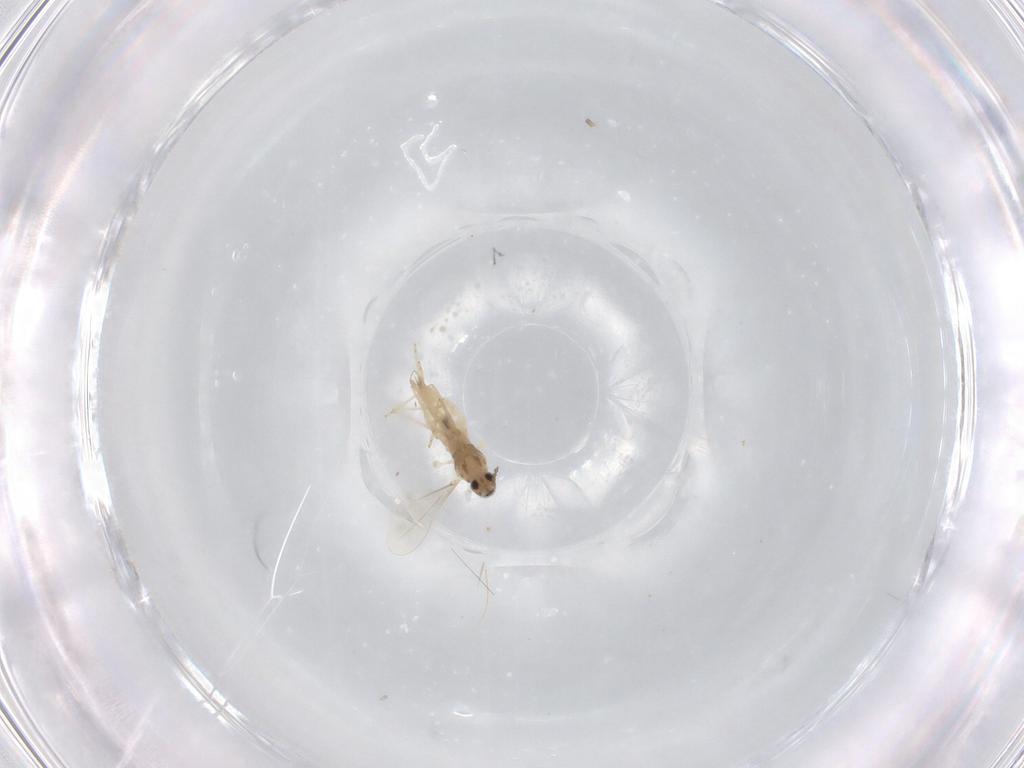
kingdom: Animalia
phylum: Arthropoda
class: Insecta
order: Diptera
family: Cecidomyiidae
